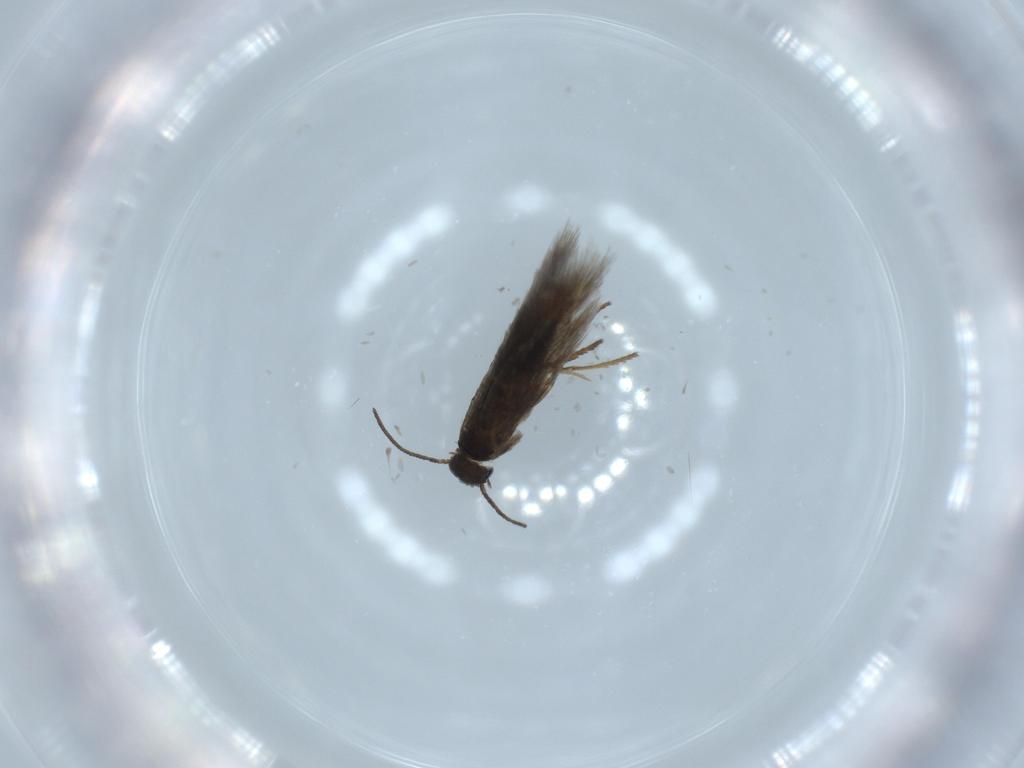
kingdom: Animalia
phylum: Arthropoda
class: Insecta
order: Lepidoptera
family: Heliozelidae
